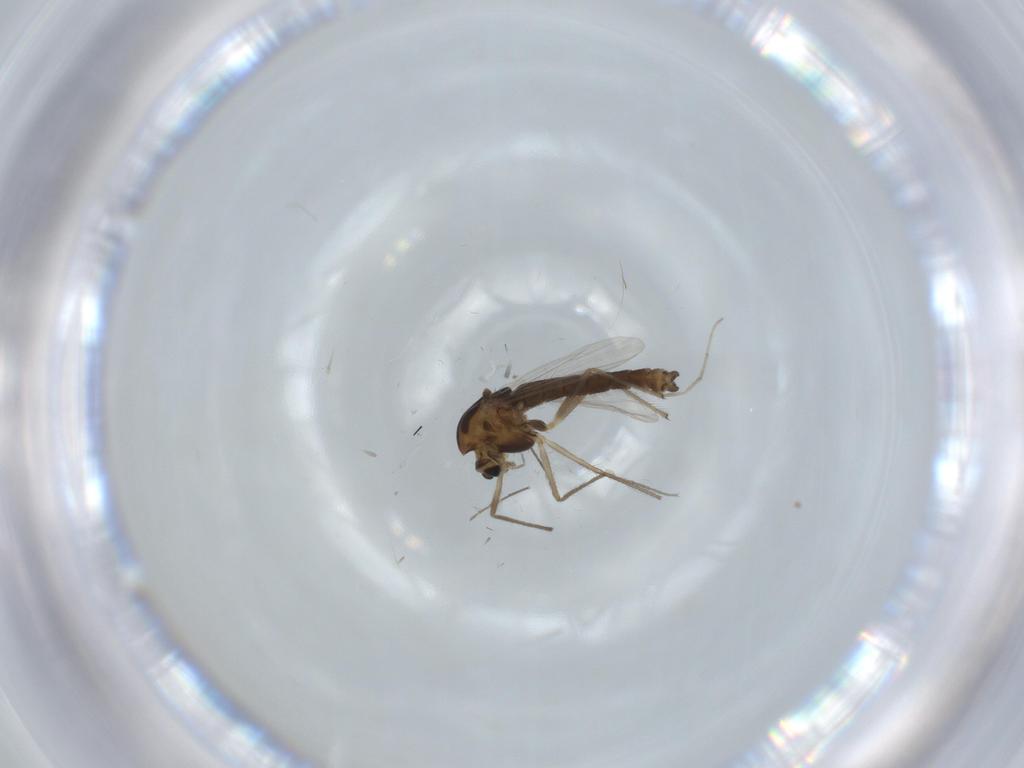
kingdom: Animalia
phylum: Arthropoda
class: Insecta
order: Diptera
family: Chironomidae
